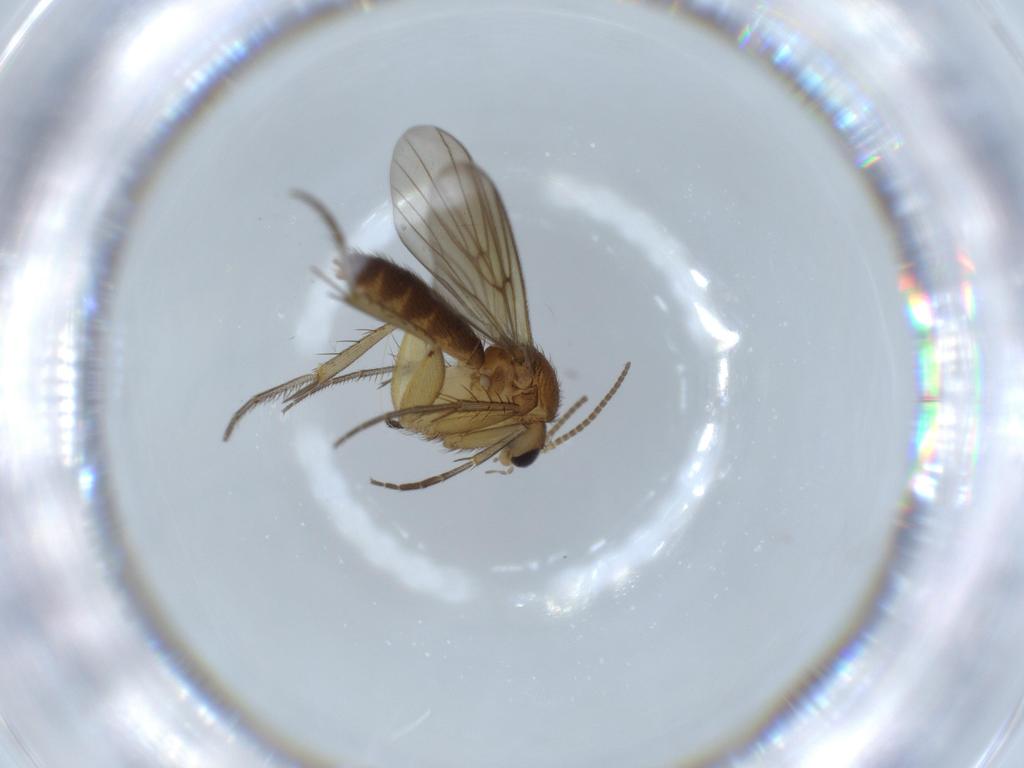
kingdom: Animalia
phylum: Arthropoda
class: Insecta
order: Diptera
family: Mycetophilidae
